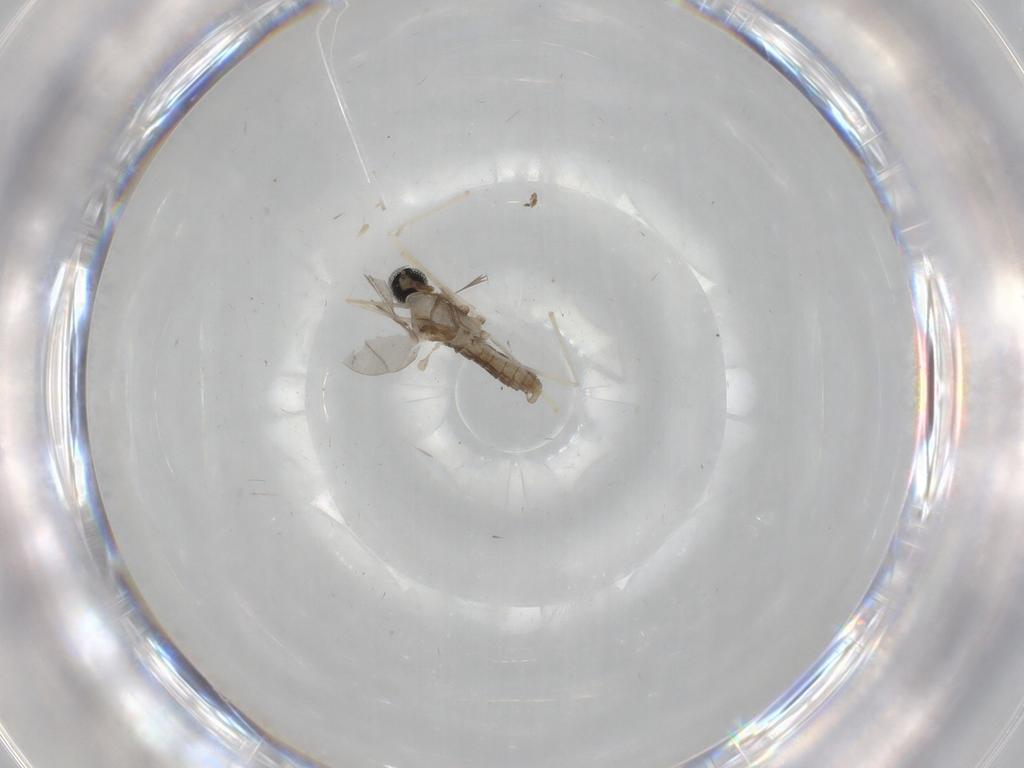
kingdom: Animalia
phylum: Arthropoda
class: Insecta
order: Diptera
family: Cecidomyiidae
